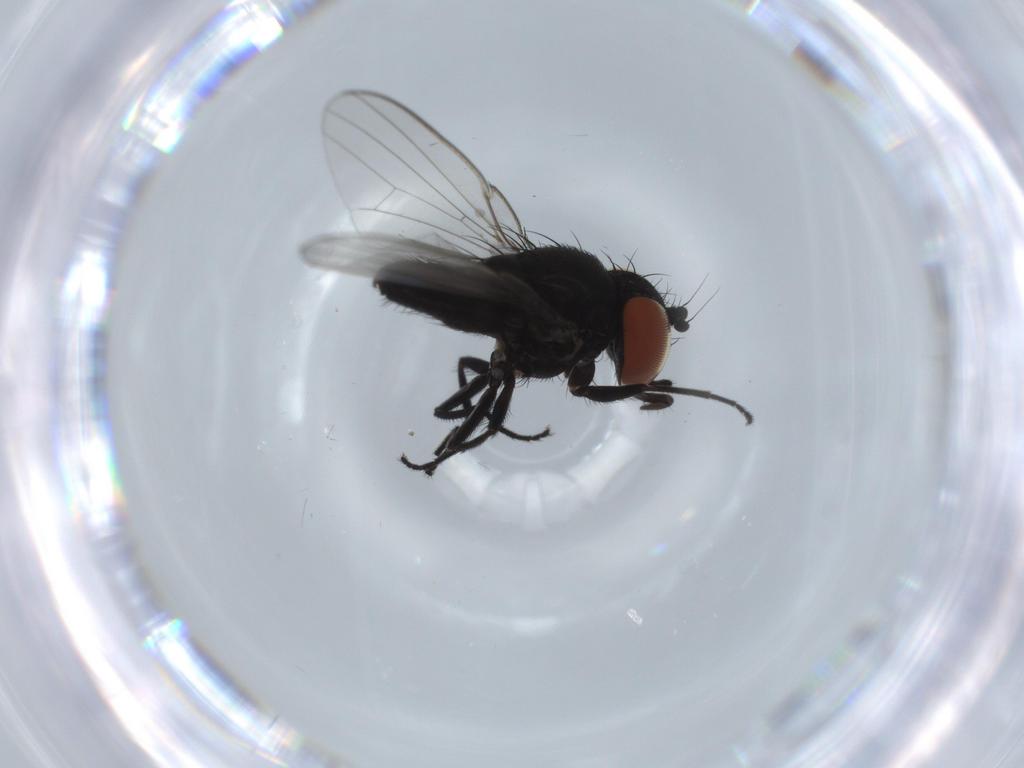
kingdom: Animalia
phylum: Arthropoda
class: Insecta
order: Diptera
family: Milichiidae
